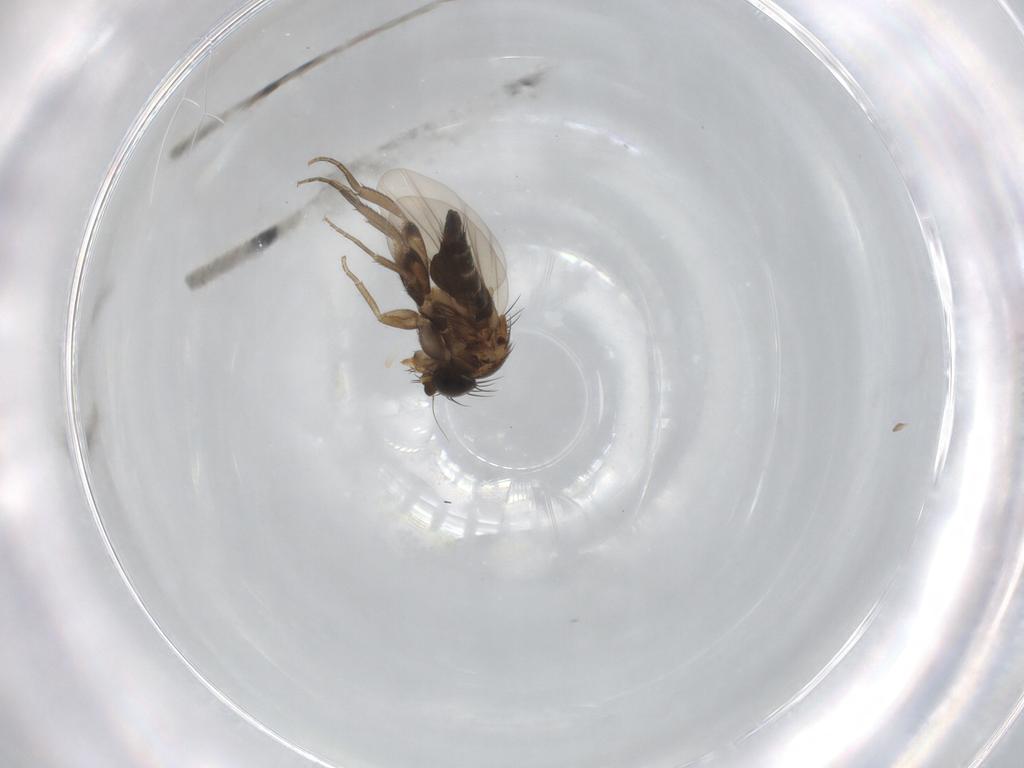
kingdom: Animalia
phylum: Arthropoda
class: Insecta
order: Diptera
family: Phoridae
